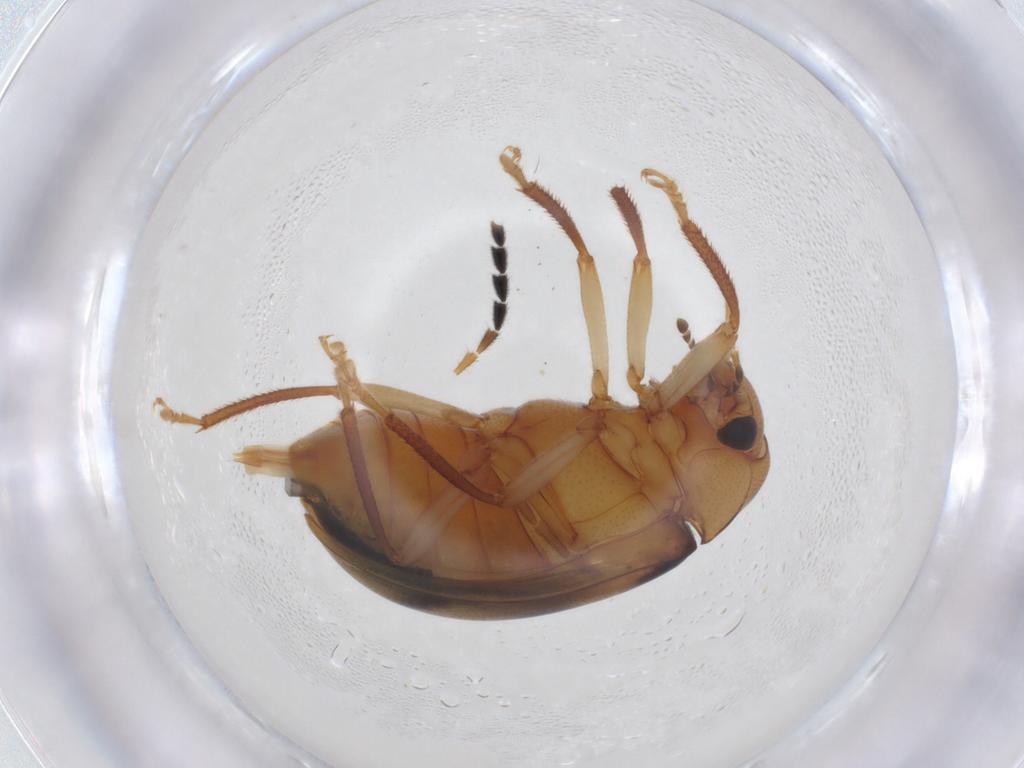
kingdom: Animalia
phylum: Arthropoda
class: Insecta
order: Coleoptera
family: Ptilodactylidae
